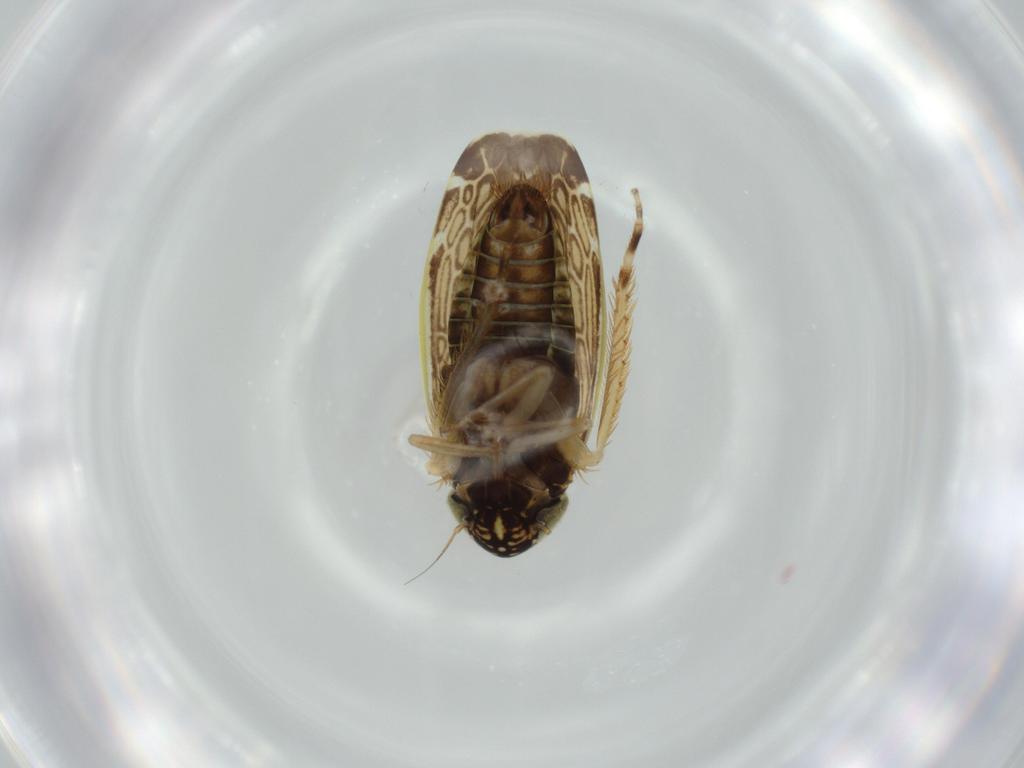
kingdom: Animalia
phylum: Arthropoda
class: Insecta
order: Hemiptera
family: Cicadellidae
